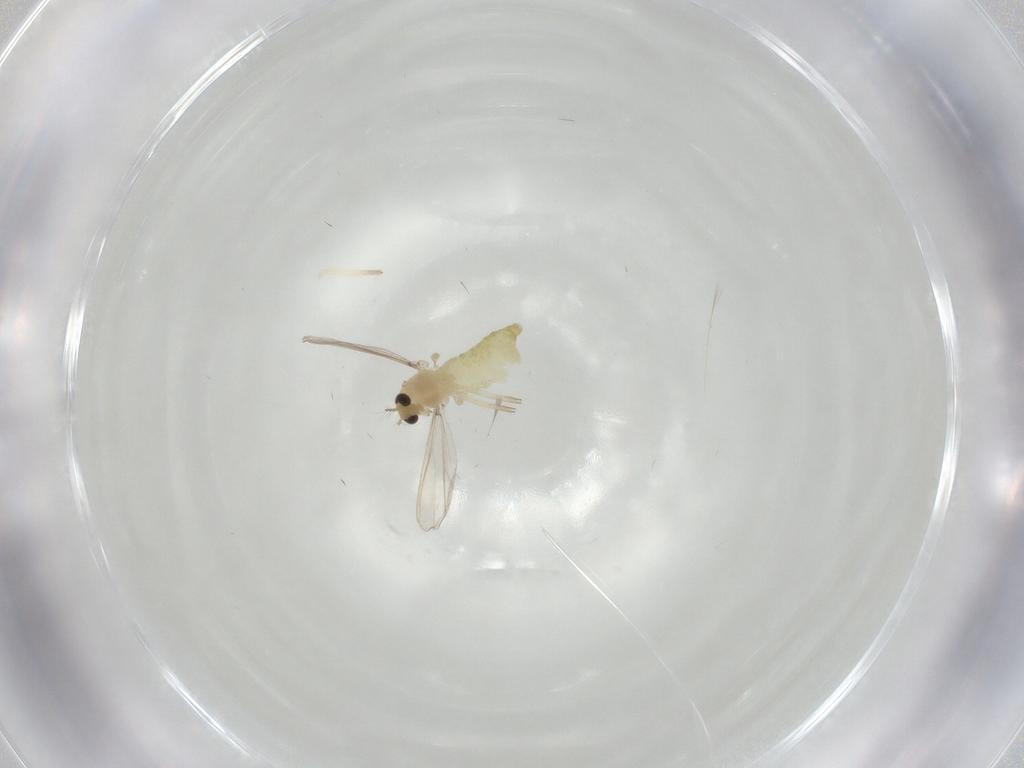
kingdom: Animalia
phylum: Arthropoda
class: Insecta
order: Diptera
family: Chironomidae
